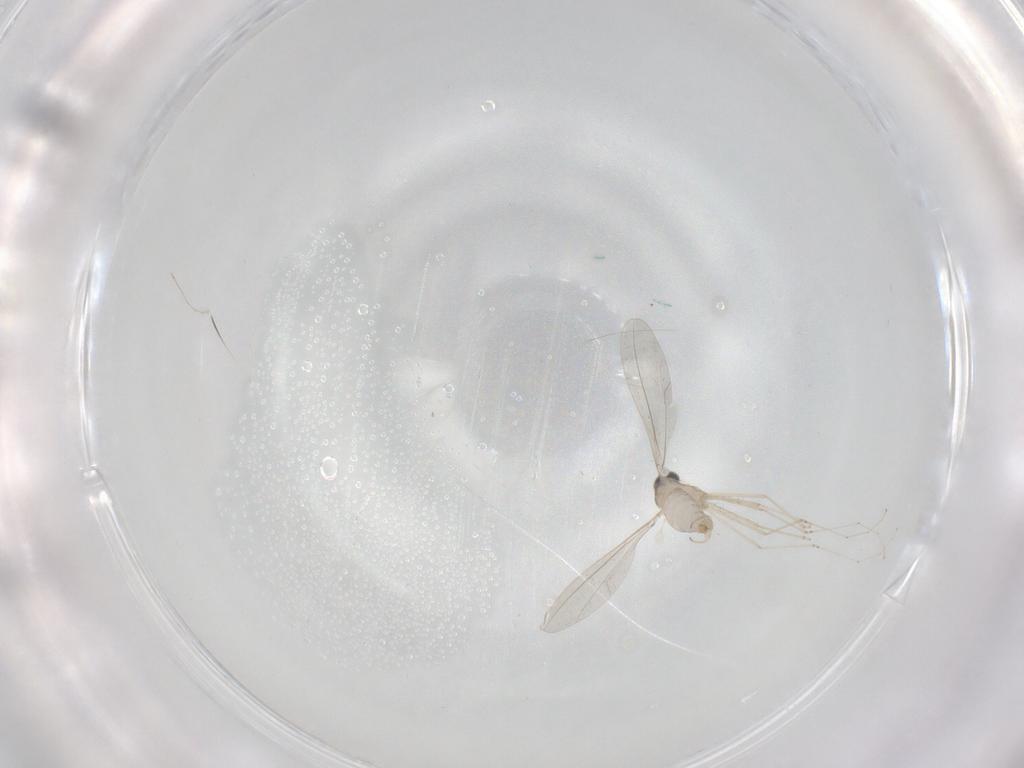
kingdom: Animalia
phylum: Arthropoda
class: Insecta
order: Diptera
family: Cecidomyiidae
